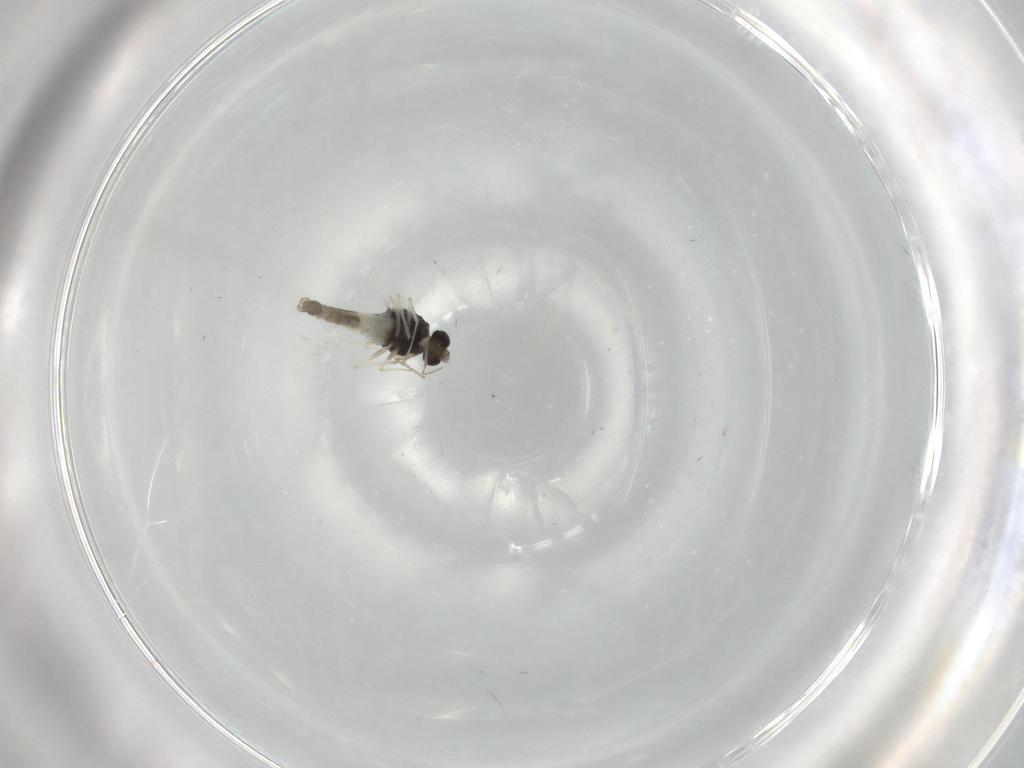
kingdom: Animalia
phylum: Arthropoda
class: Insecta
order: Diptera
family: Chironomidae
